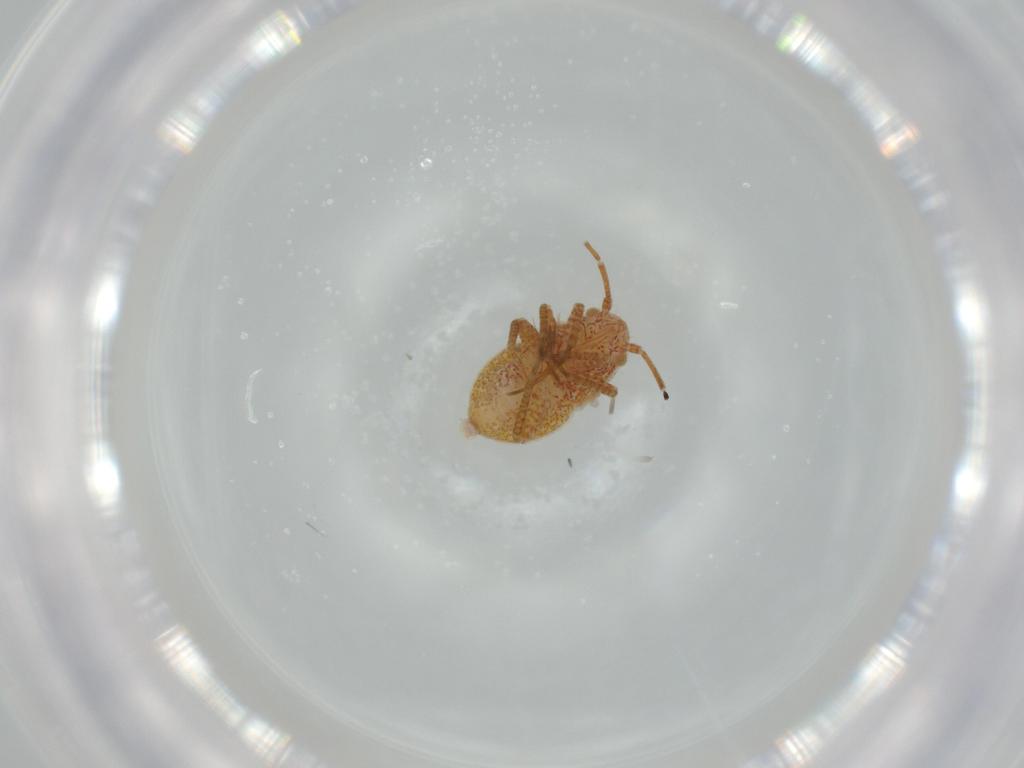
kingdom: Animalia
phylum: Arthropoda
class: Insecta
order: Hemiptera
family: Miridae
